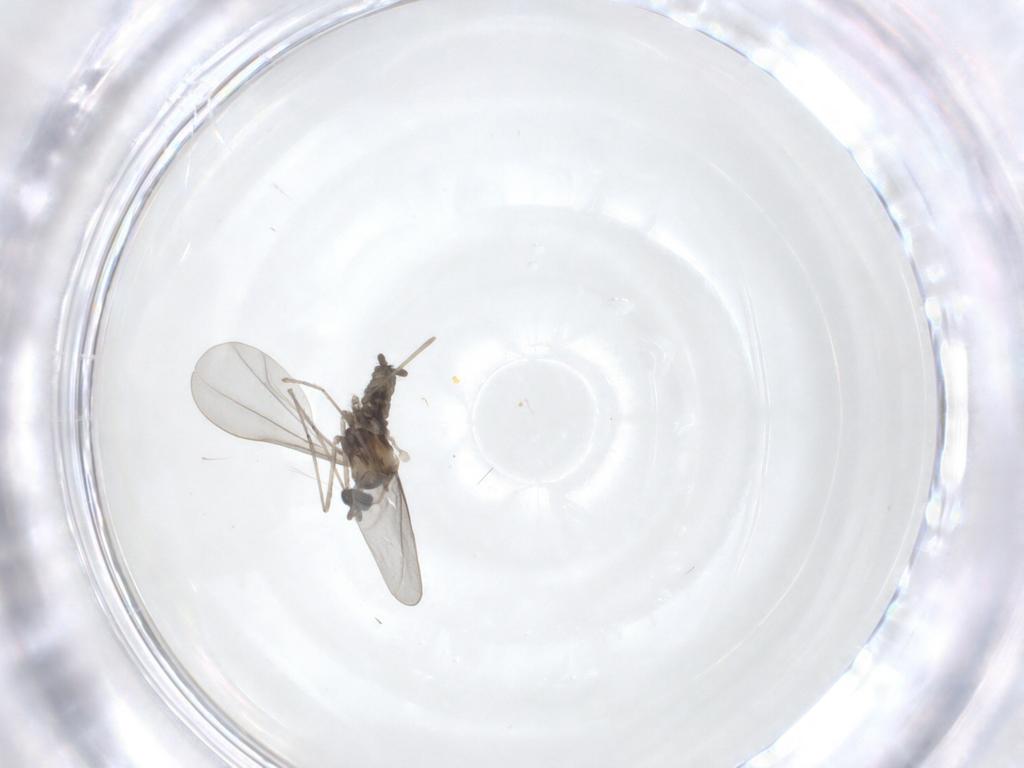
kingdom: Animalia
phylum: Arthropoda
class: Insecta
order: Diptera
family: Cecidomyiidae
